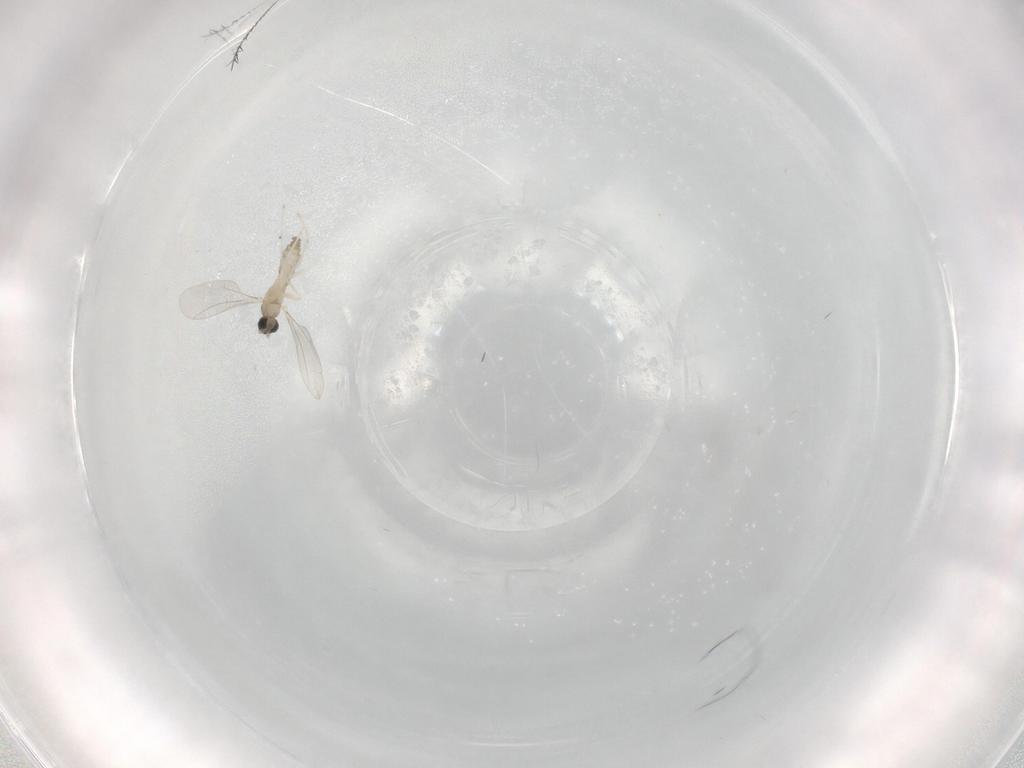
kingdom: Animalia
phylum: Arthropoda
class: Insecta
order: Diptera
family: Cecidomyiidae
